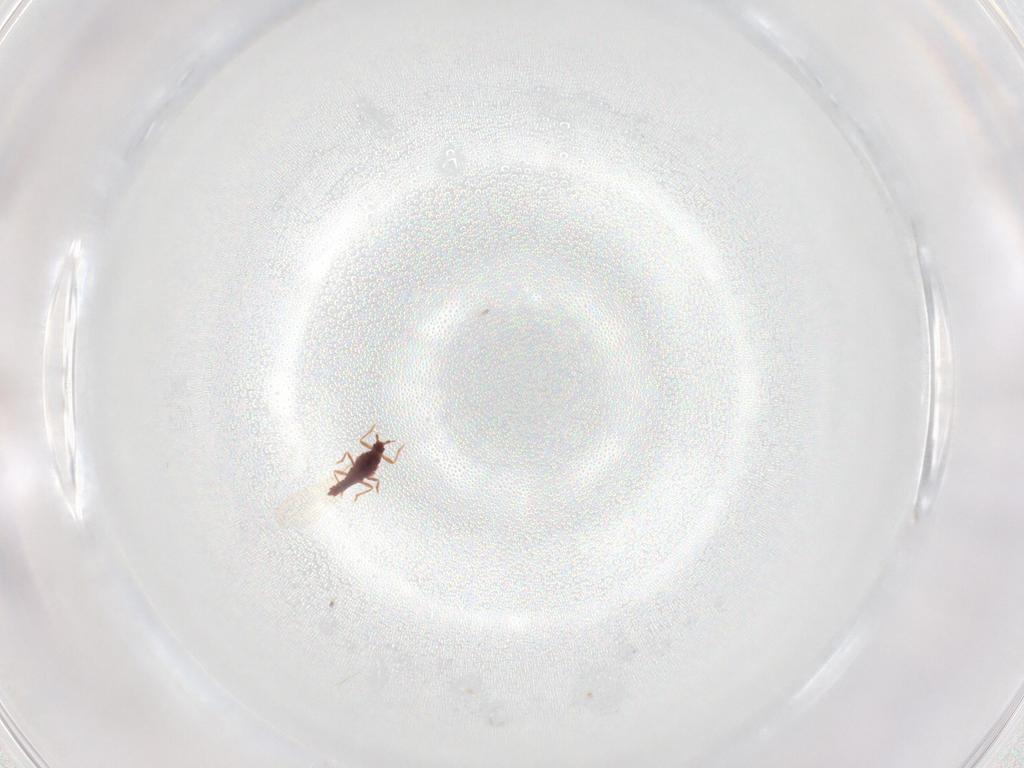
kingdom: Animalia
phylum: Arthropoda
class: Insecta
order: Hemiptera
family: Pseudococcidae
